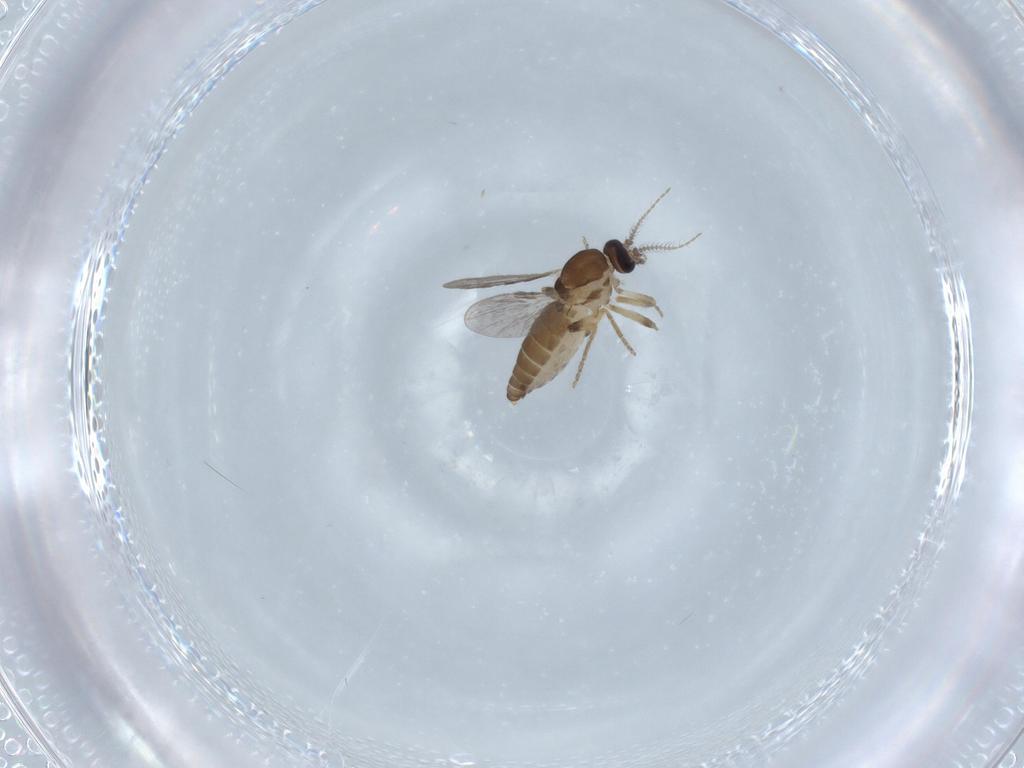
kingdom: Animalia
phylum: Arthropoda
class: Insecta
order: Diptera
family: Ceratopogonidae
